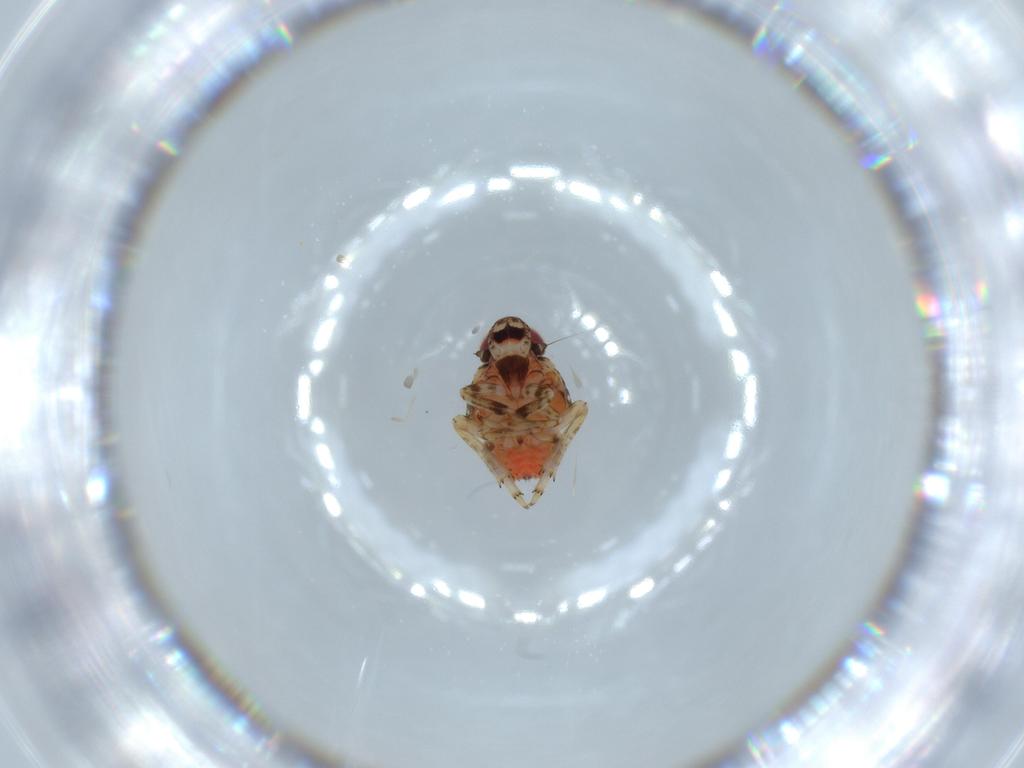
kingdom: Animalia
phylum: Arthropoda
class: Insecta
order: Hemiptera
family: Issidae
